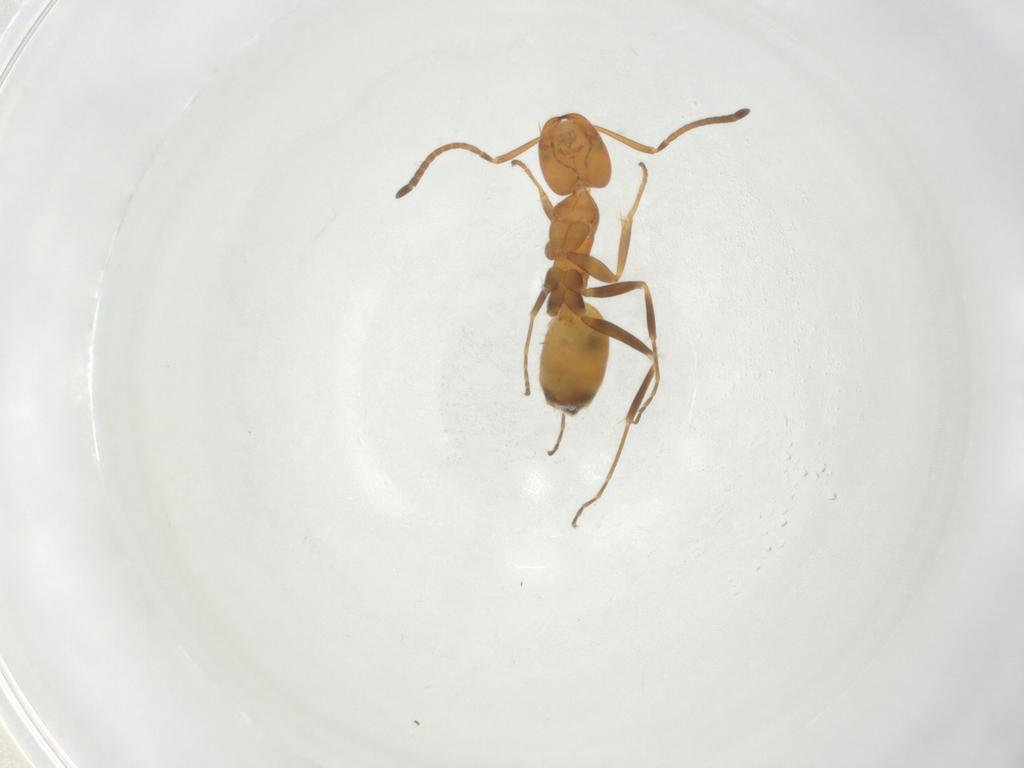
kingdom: Animalia
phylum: Arthropoda
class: Insecta
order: Hymenoptera
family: Formicidae
